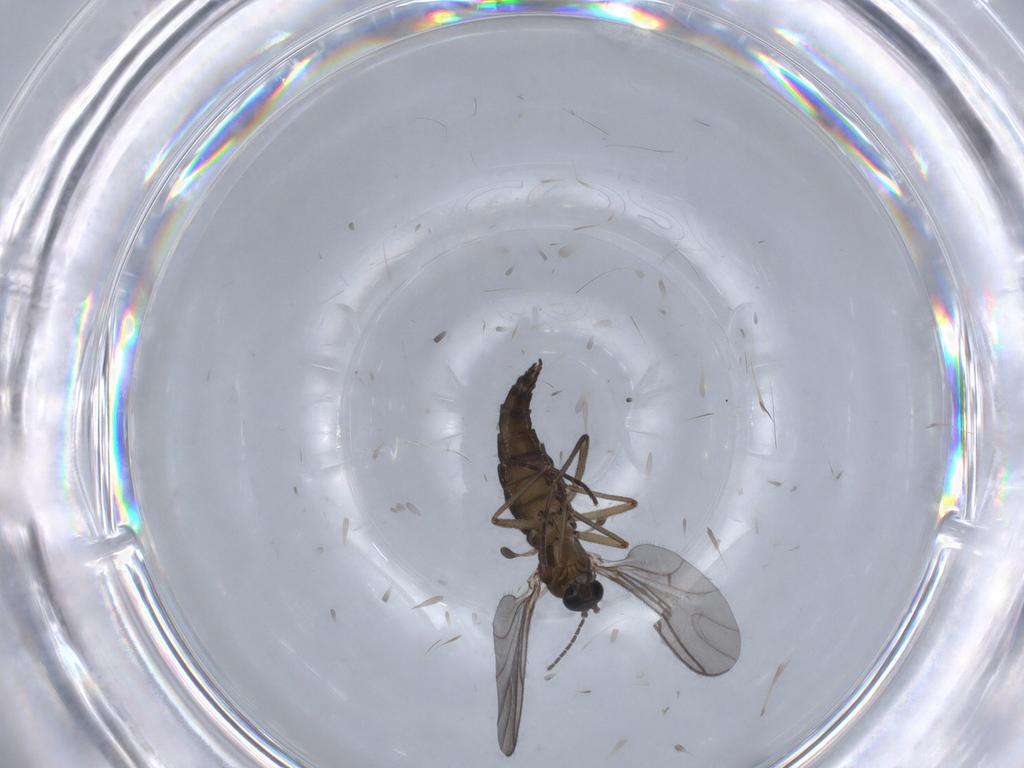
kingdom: Animalia
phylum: Arthropoda
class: Insecta
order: Diptera
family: Sciaridae
